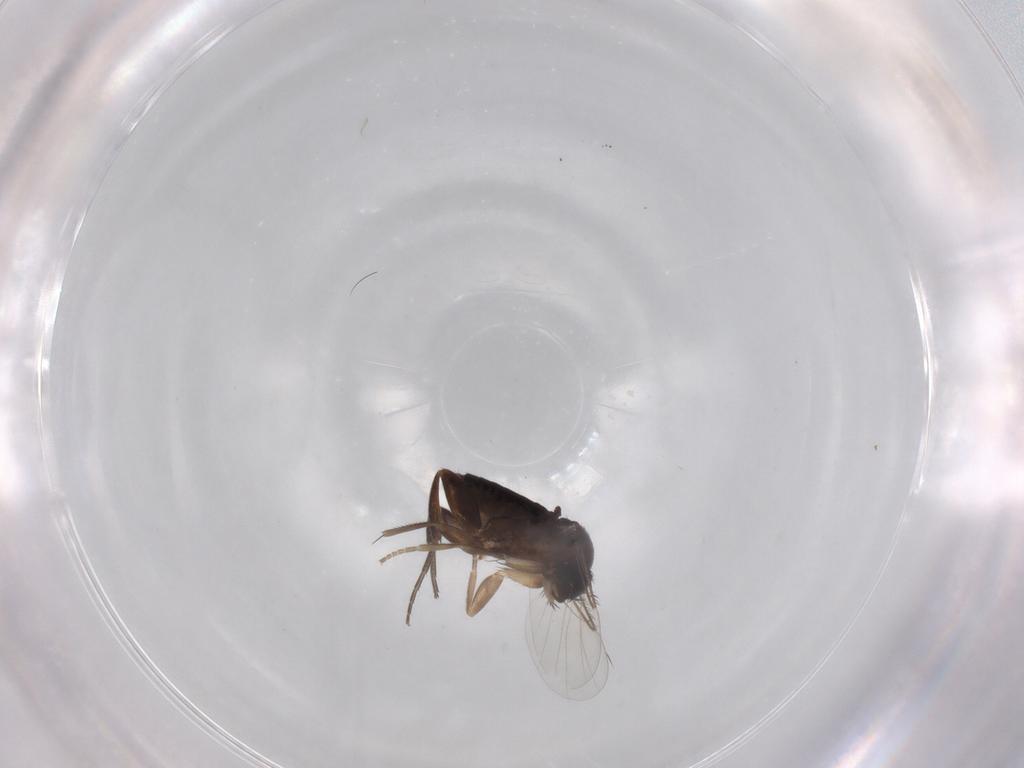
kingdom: Animalia
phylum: Arthropoda
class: Insecta
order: Diptera
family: Phoridae
